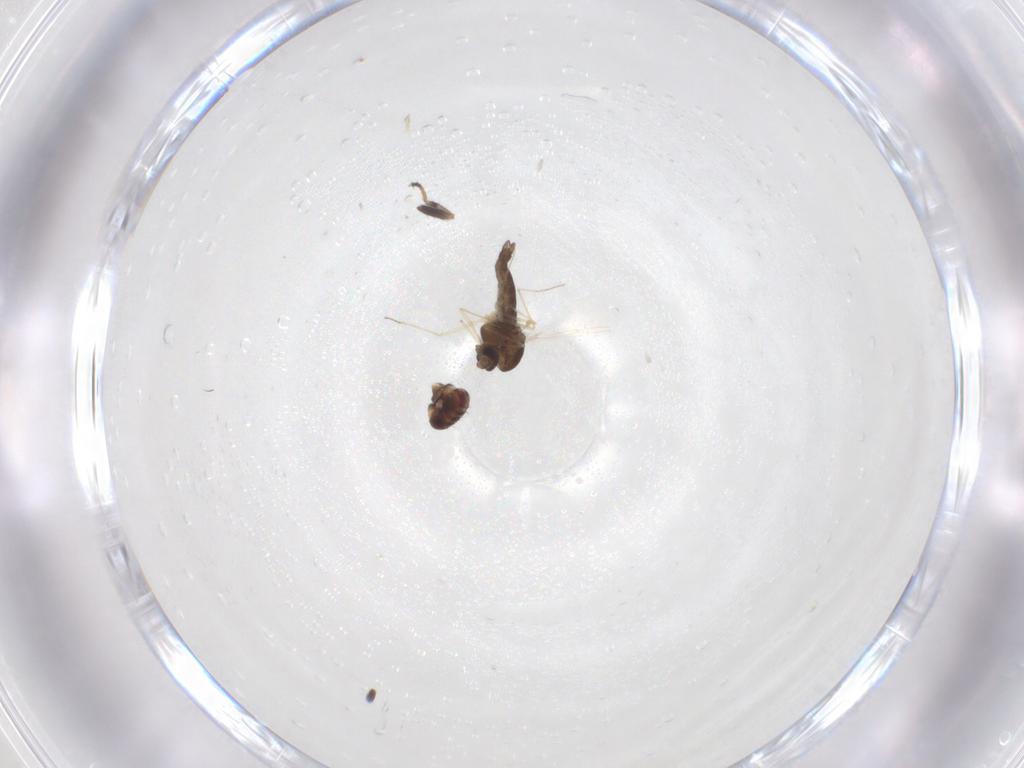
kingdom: Animalia
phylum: Arthropoda
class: Insecta
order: Diptera
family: Chironomidae
